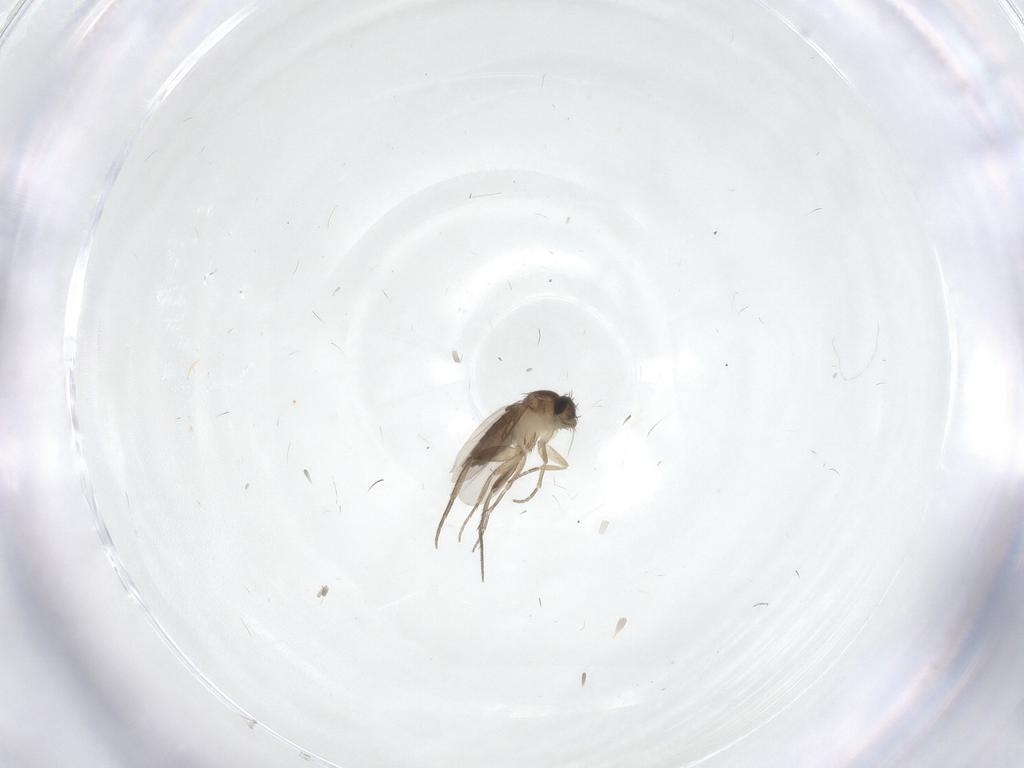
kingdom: Animalia
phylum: Arthropoda
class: Insecta
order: Diptera
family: Phoridae
